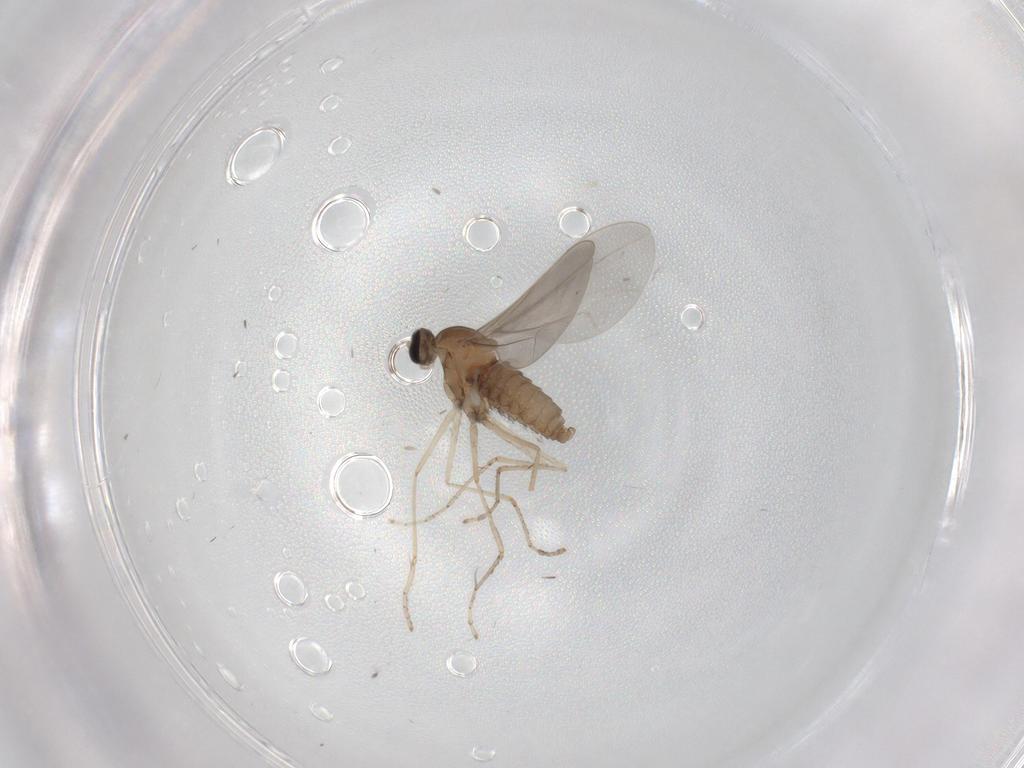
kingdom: Animalia
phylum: Arthropoda
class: Insecta
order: Diptera
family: Cecidomyiidae
